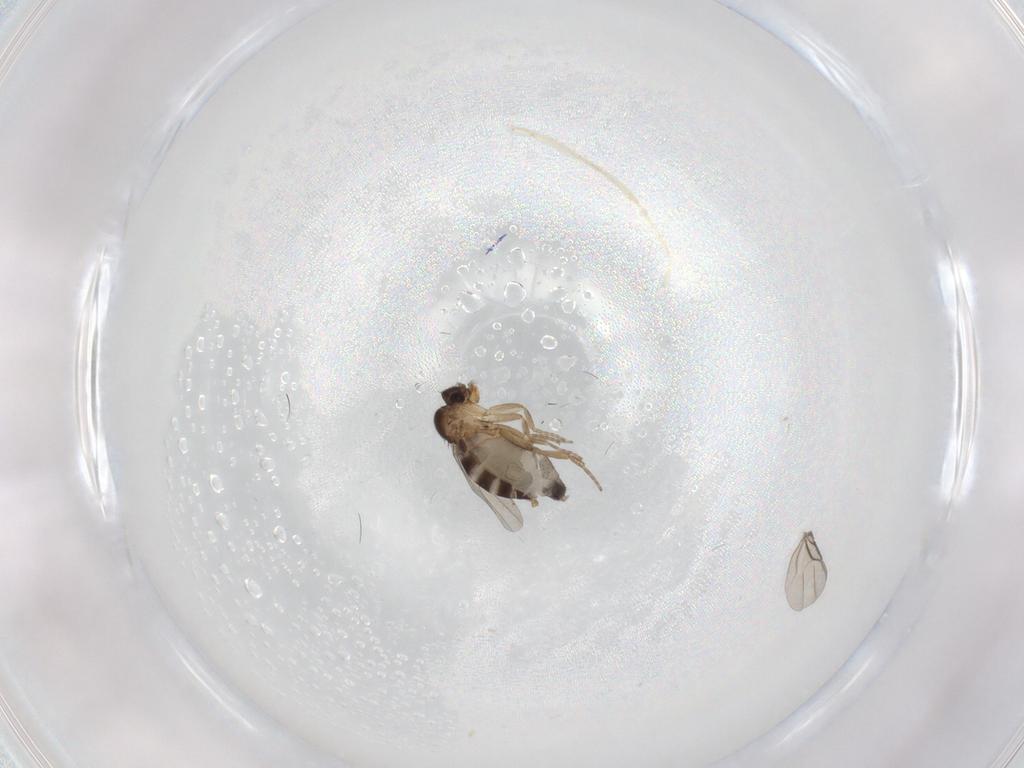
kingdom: Animalia
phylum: Arthropoda
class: Insecta
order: Diptera
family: Phoridae
